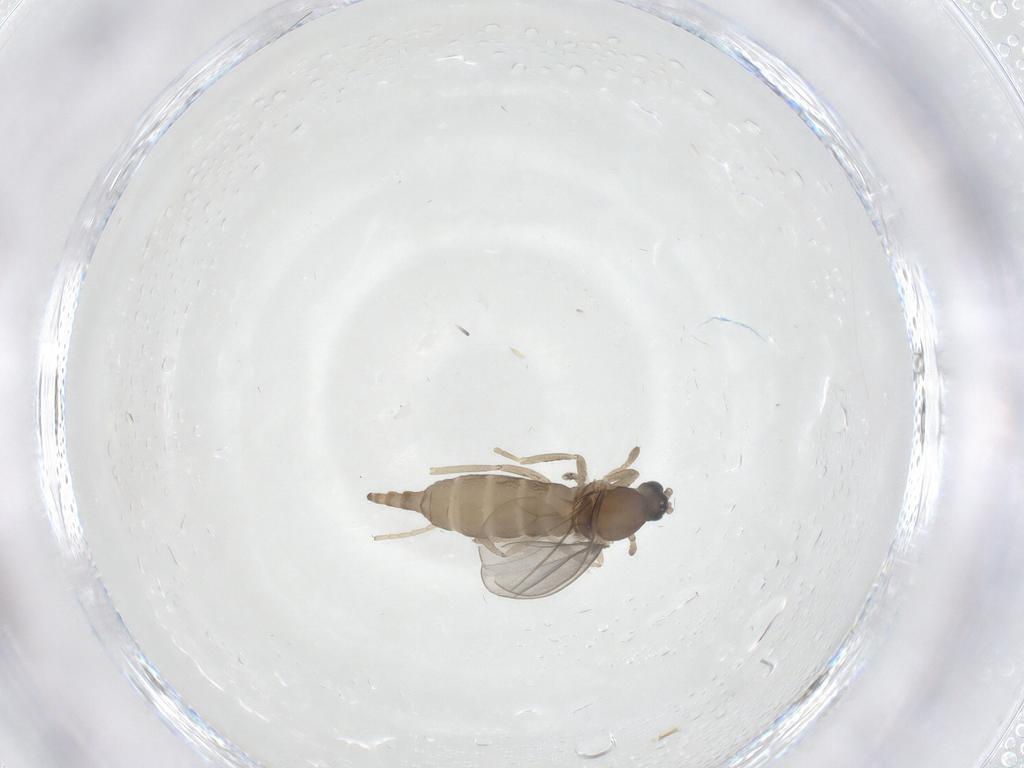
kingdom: Animalia
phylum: Arthropoda
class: Insecta
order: Diptera
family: Cecidomyiidae
